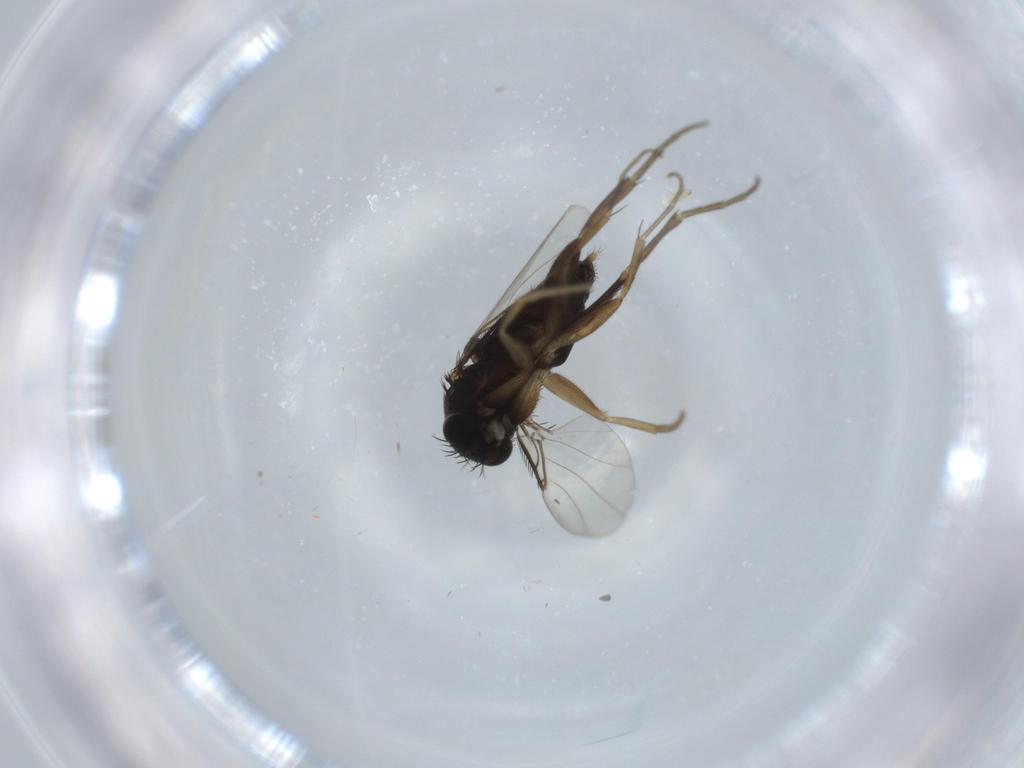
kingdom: Animalia
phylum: Arthropoda
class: Insecta
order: Diptera
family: Phoridae
